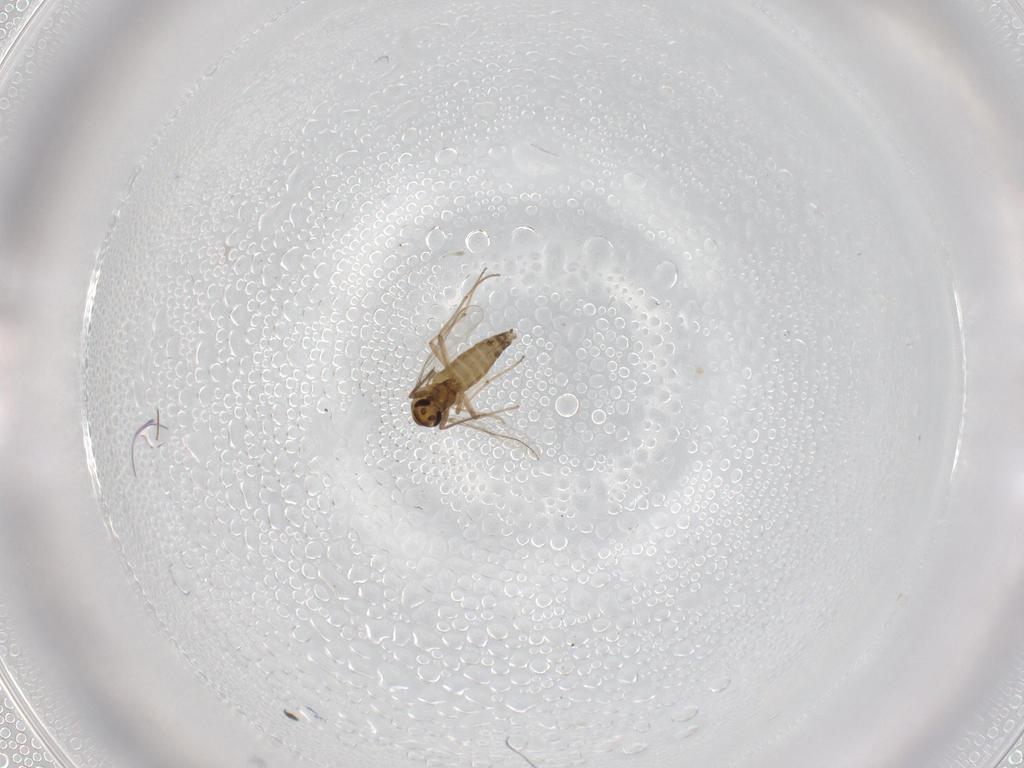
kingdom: Animalia
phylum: Arthropoda
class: Insecta
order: Diptera
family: Chironomidae
